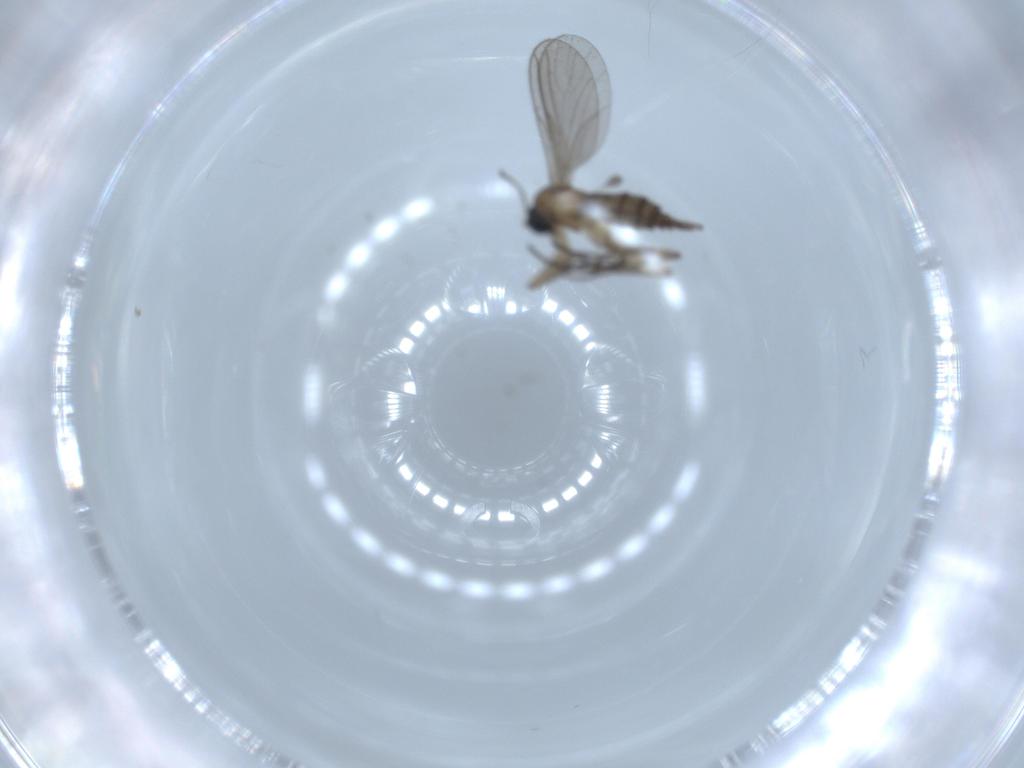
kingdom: Animalia
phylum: Arthropoda
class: Insecta
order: Diptera
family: Sciaridae
